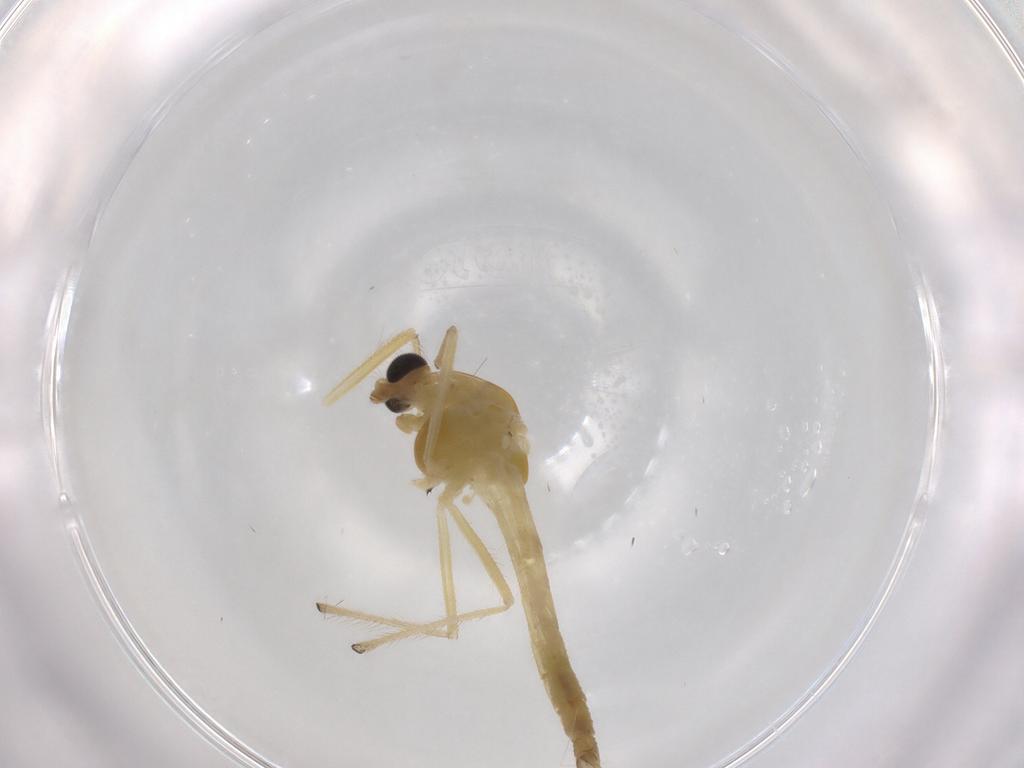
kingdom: Animalia
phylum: Arthropoda
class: Insecta
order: Diptera
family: Chironomidae
